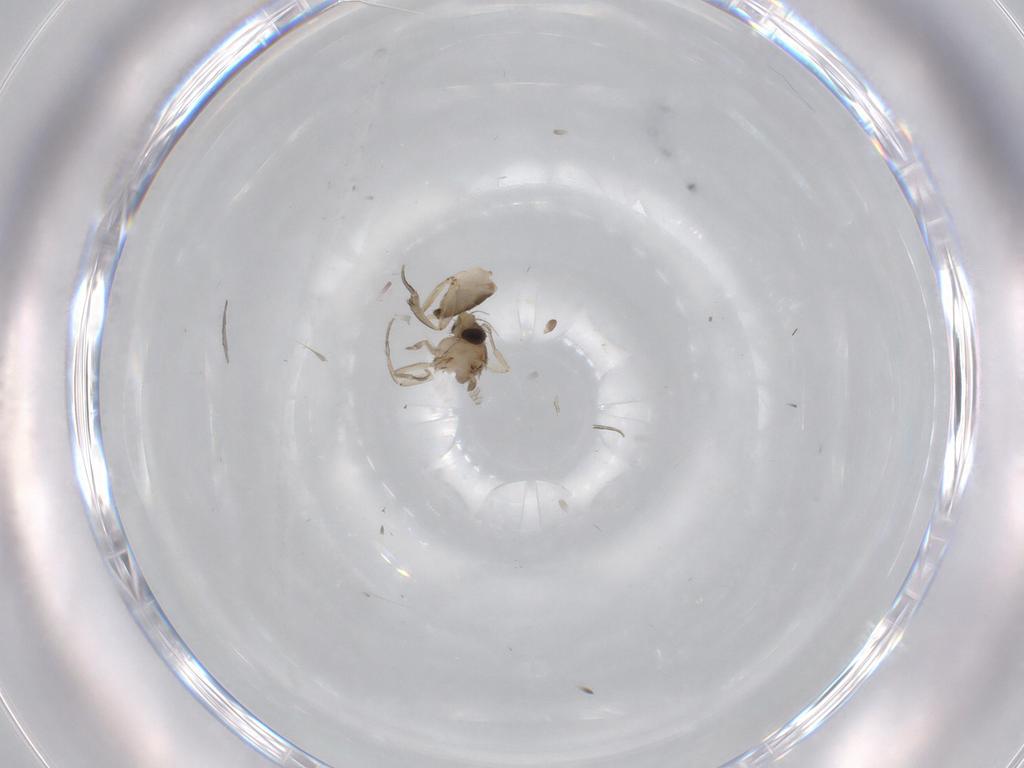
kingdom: Animalia
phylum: Arthropoda
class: Insecta
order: Diptera
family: Phoridae
